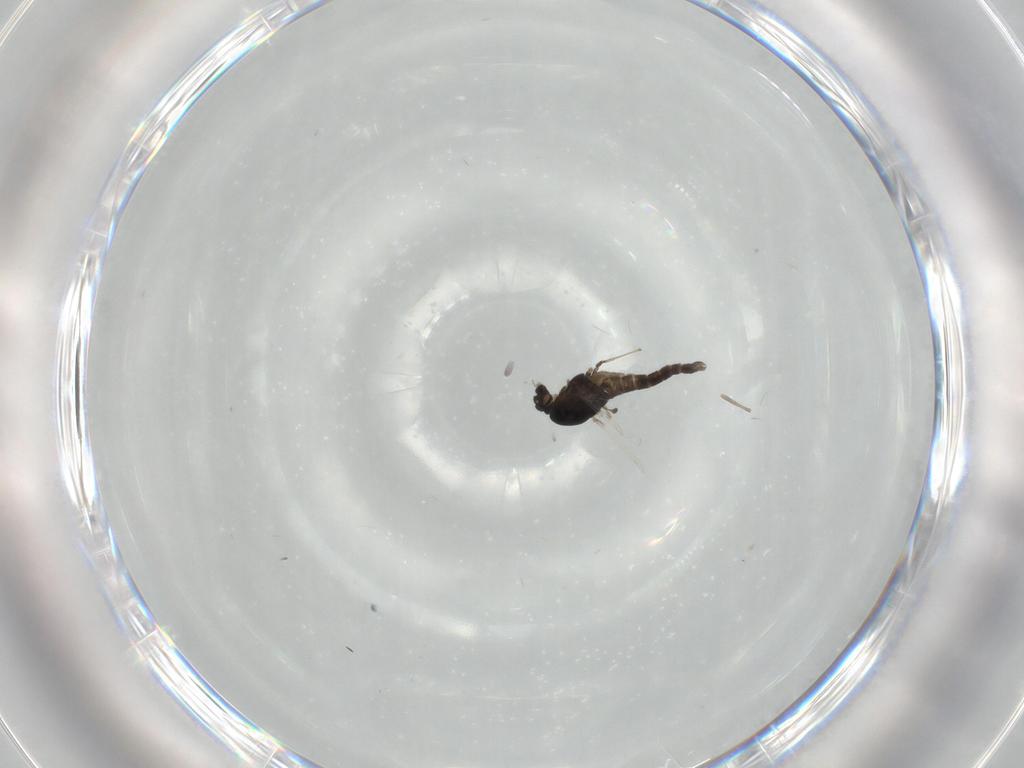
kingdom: Animalia
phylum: Arthropoda
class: Insecta
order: Diptera
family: Chironomidae
